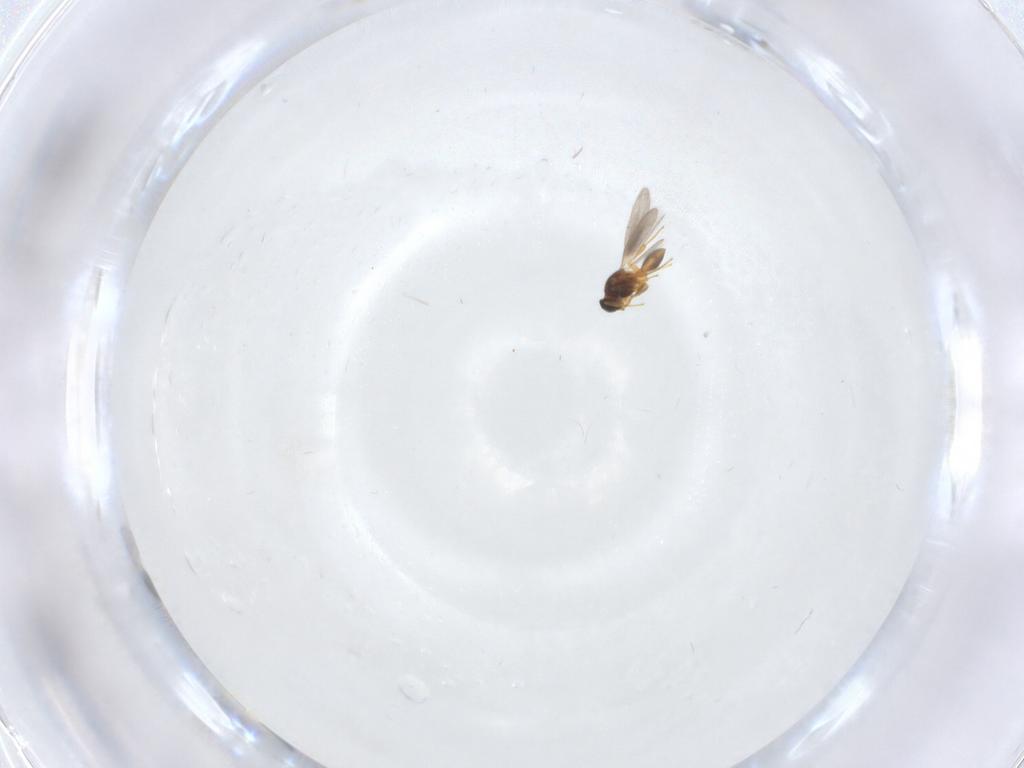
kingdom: Animalia
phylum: Arthropoda
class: Insecta
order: Hymenoptera
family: Platygastridae
